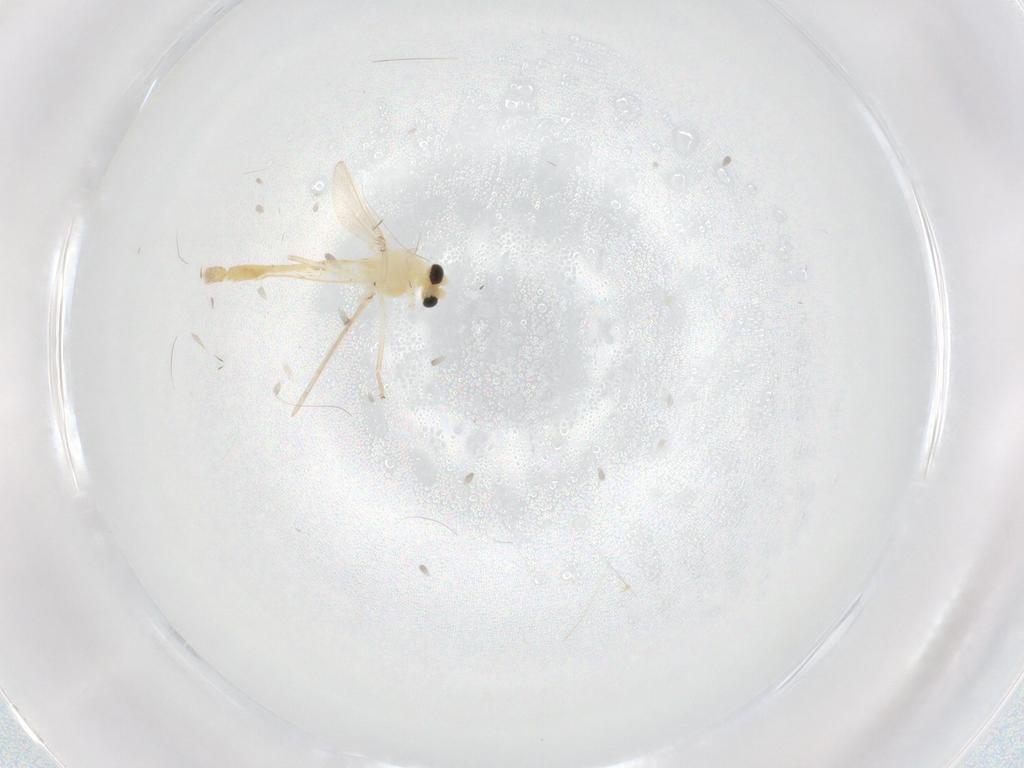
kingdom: Animalia
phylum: Arthropoda
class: Insecta
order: Diptera
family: Chironomidae
